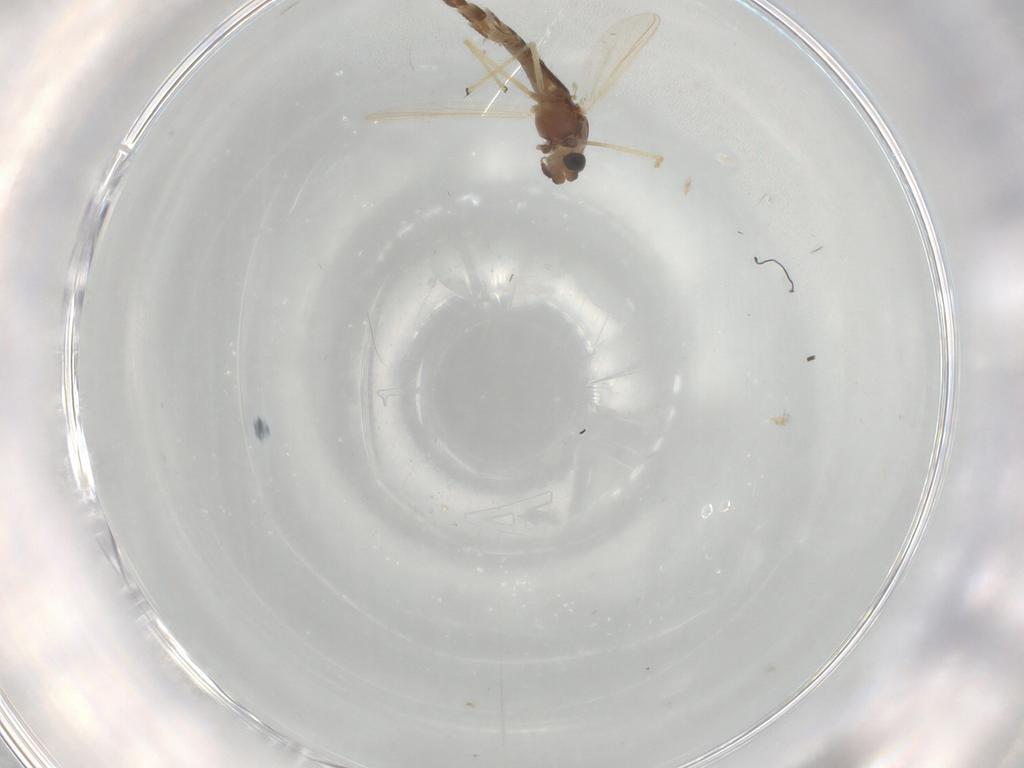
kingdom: Animalia
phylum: Arthropoda
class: Insecta
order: Diptera
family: Chironomidae
